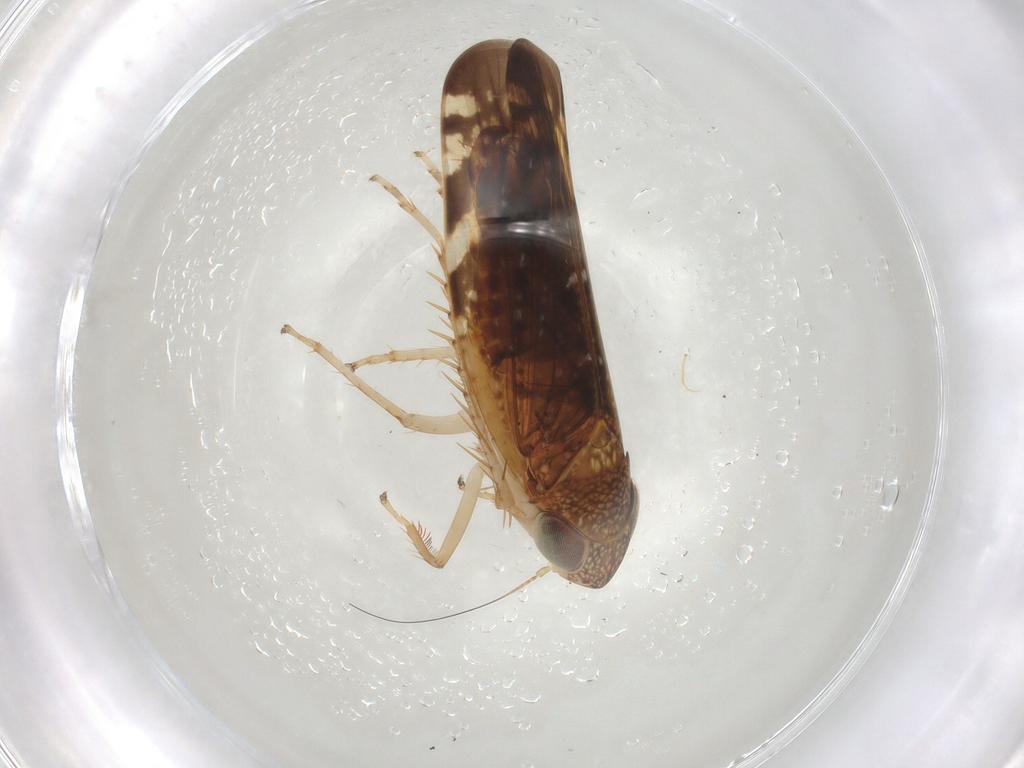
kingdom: Animalia
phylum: Arthropoda
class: Insecta
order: Hemiptera
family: Cicadellidae
